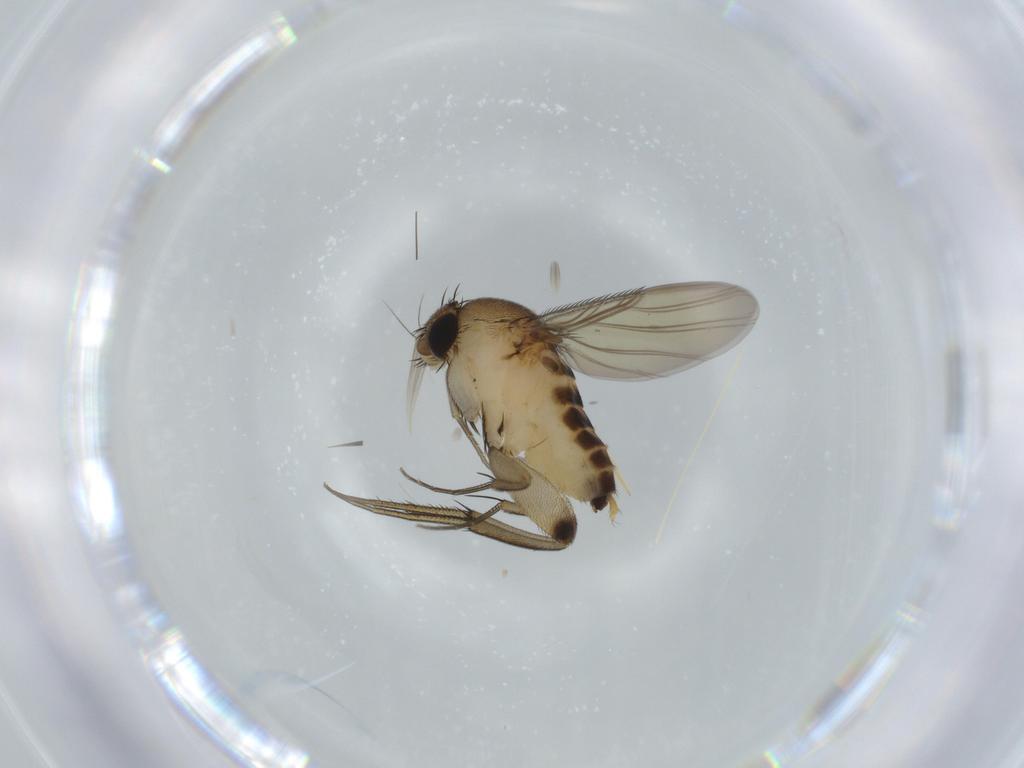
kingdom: Animalia
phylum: Arthropoda
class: Insecta
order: Diptera
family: Phoridae
